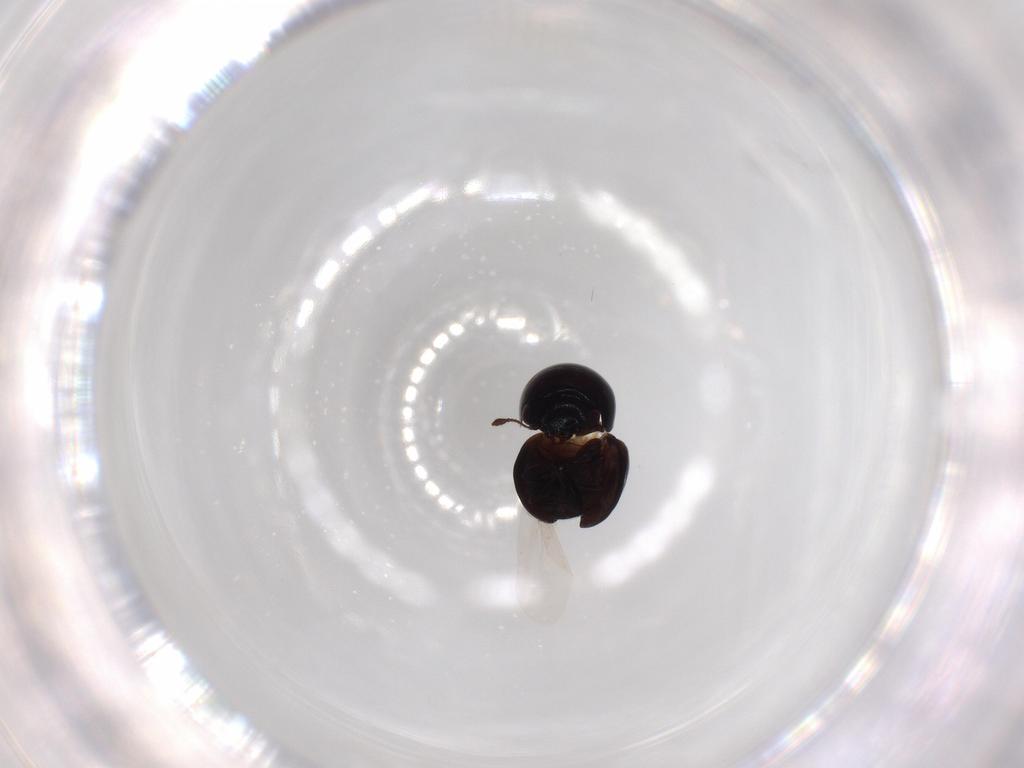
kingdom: Animalia
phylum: Arthropoda
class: Insecta
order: Coleoptera
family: Cybocephalidae
